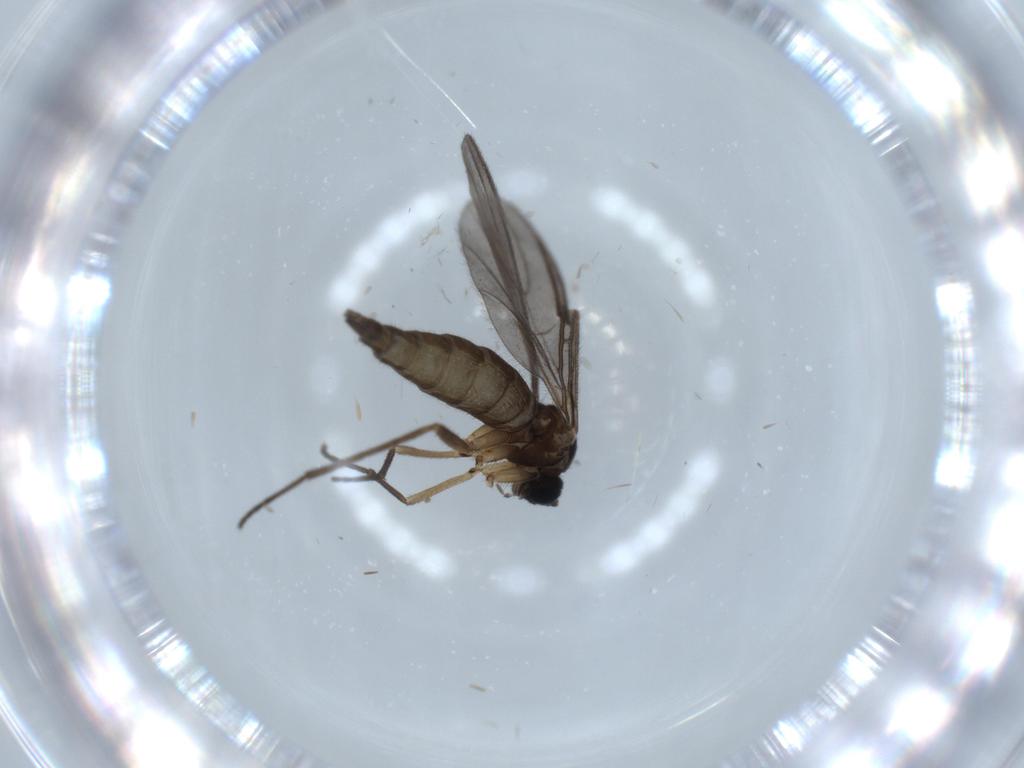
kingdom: Animalia
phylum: Arthropoda
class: Insecta
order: Diptera
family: Sciaridae
